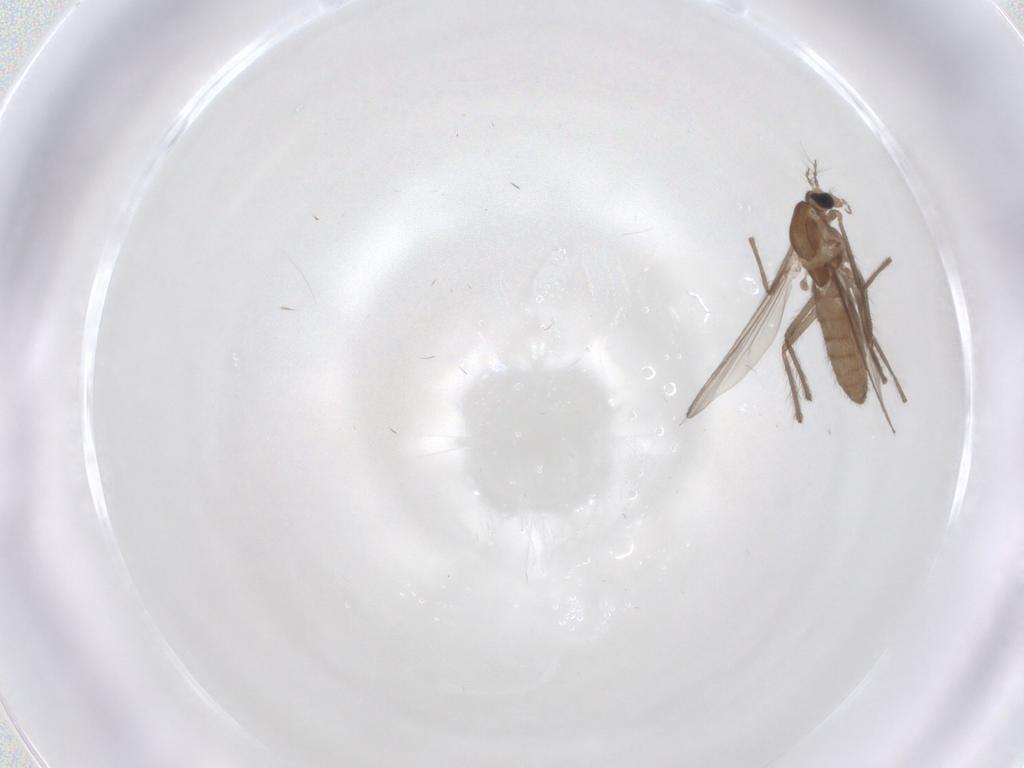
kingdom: Animalia
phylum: Arthropoda
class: Insecta
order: Diptera
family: Chironomidae
